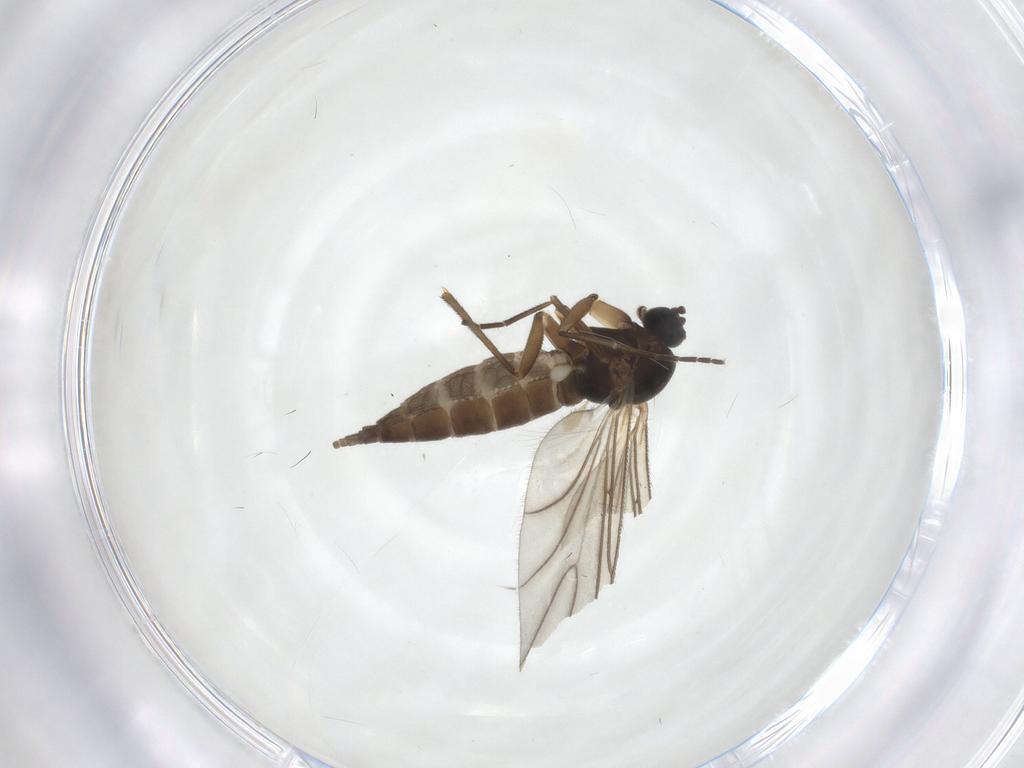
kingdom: Animalia
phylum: Arthropoda
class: Insecta
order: Diptera
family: Sciaridae
